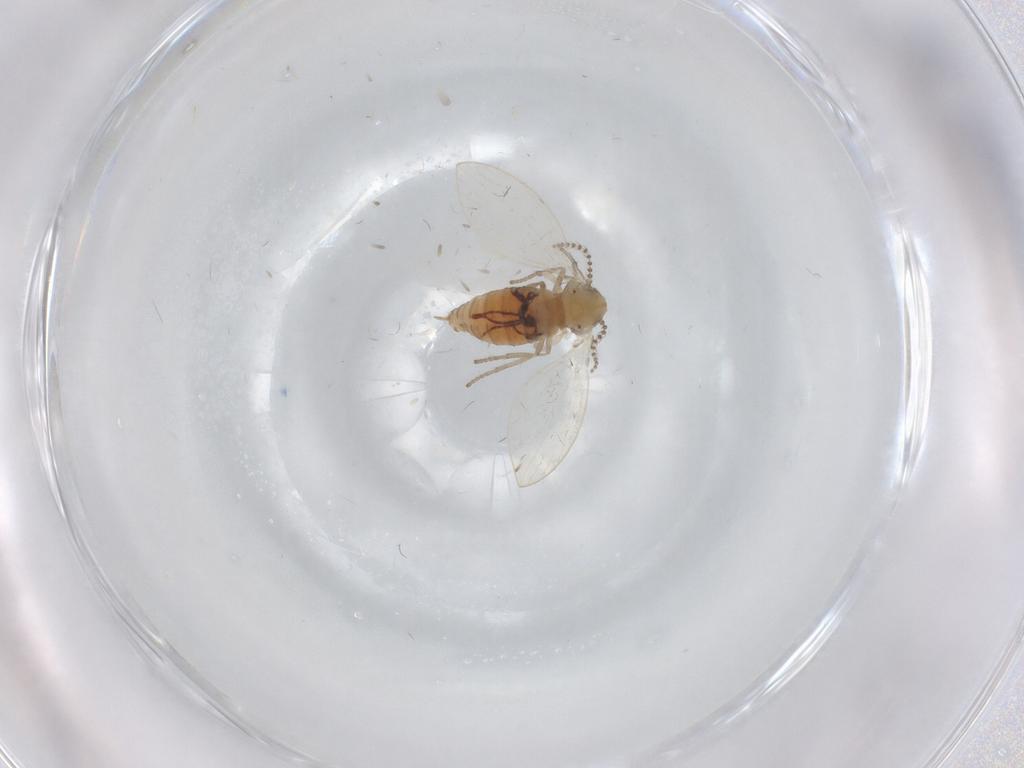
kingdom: Animalia
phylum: Arthropoda
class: Insecta
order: Diptera
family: Psychodidae
